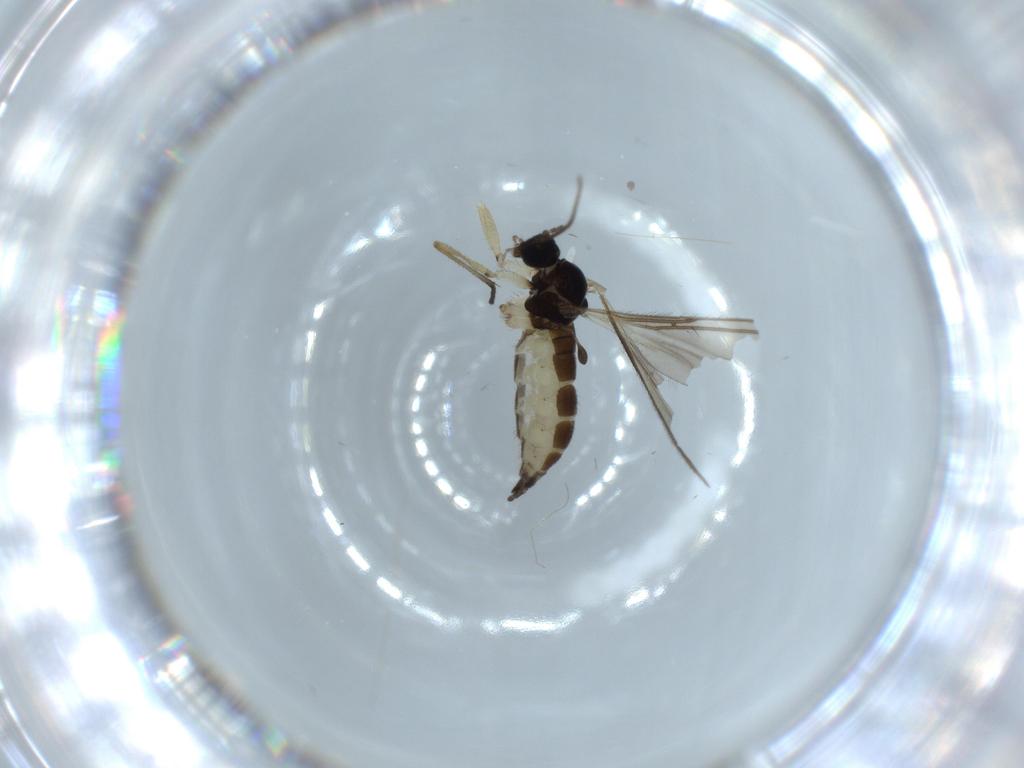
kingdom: Animalia
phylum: Arthropoda
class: Insecta
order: Diptera
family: Sciaridae
